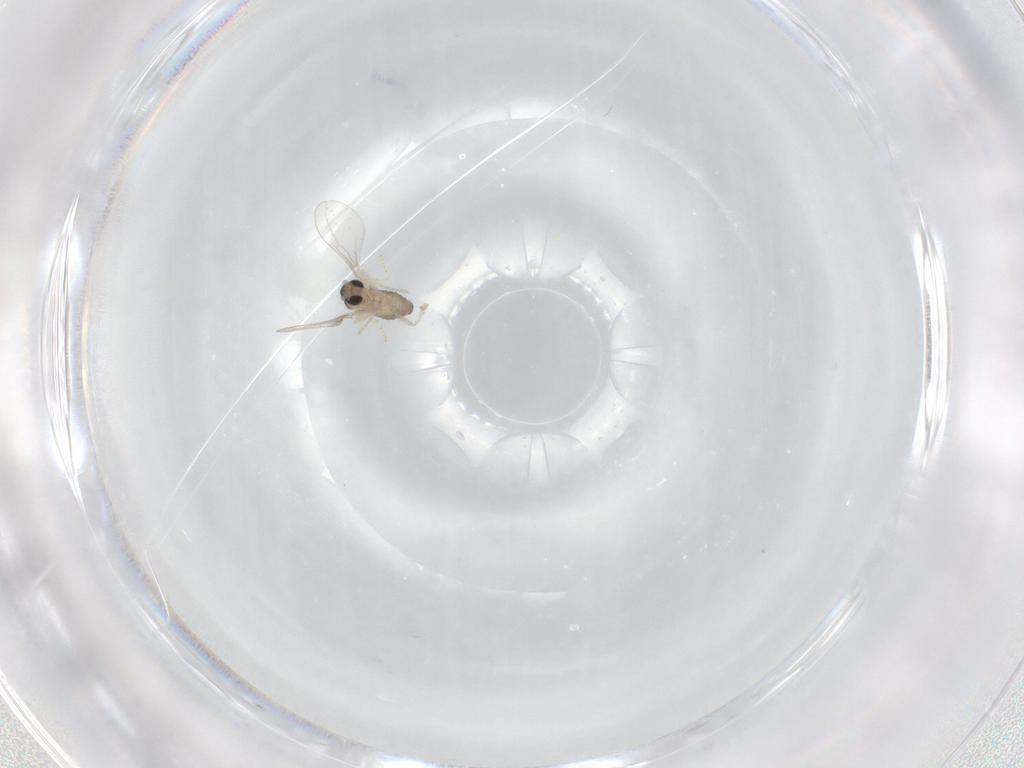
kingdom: Animalia
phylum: Arthropoda
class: Insecta
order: Diptera
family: Cecidomyiidae
